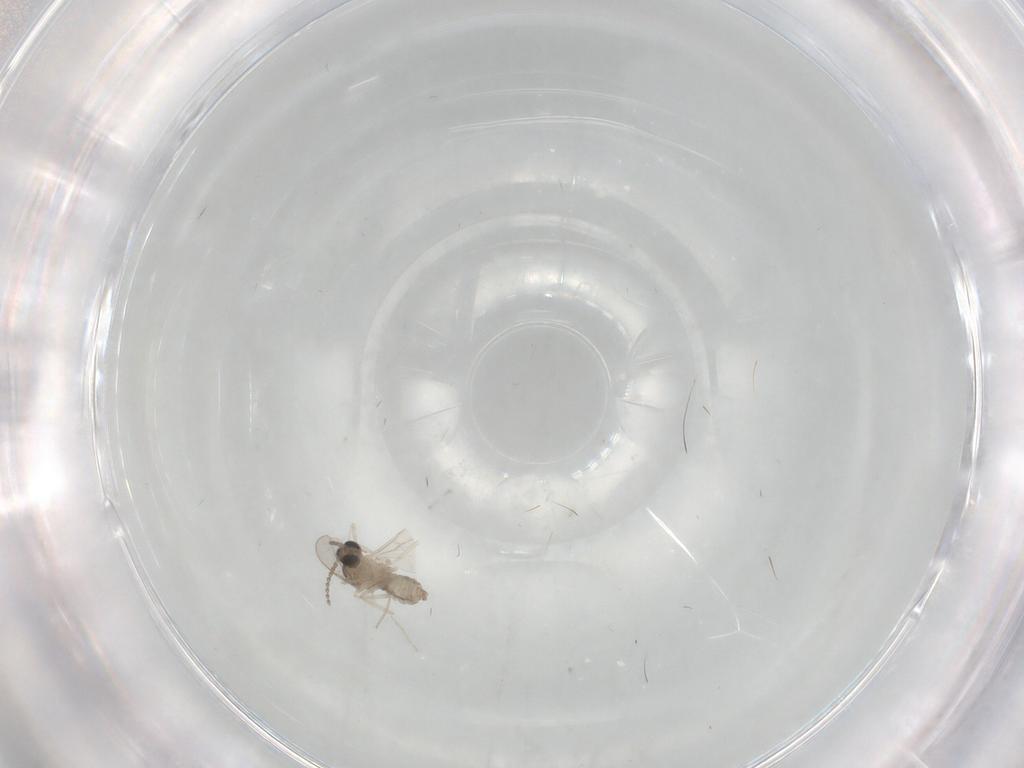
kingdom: Animalia
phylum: Arthropoda
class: Insecta
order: Diptera
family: Cecidomyiidae
